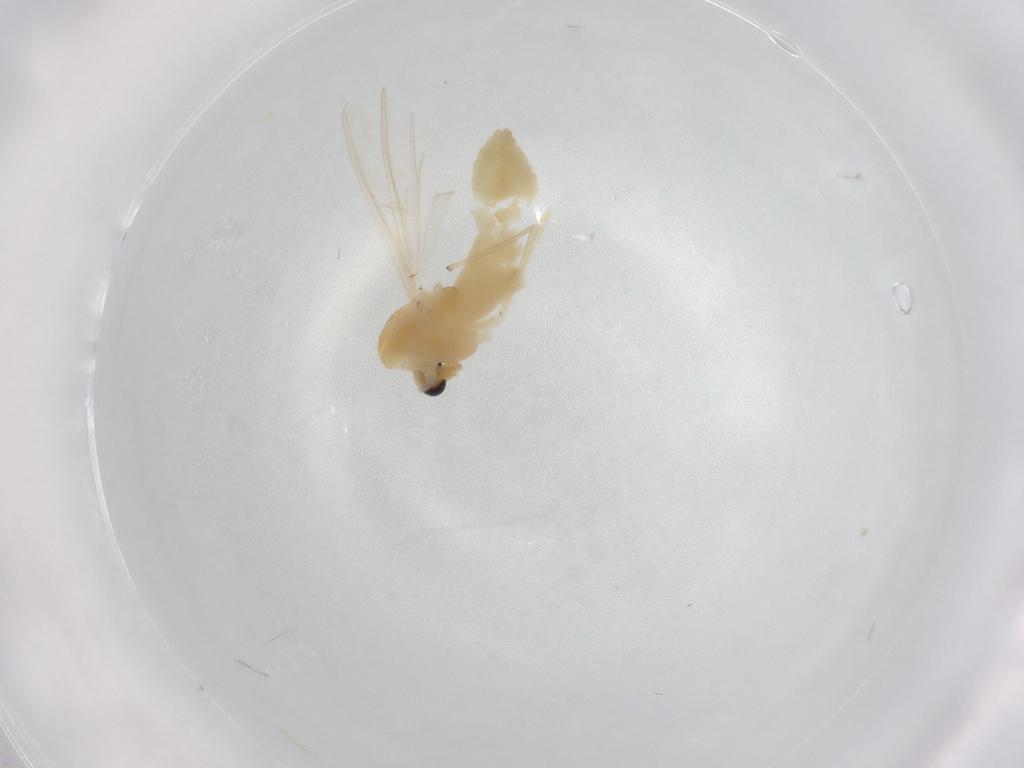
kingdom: Animalia
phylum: Arthropoda
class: Insecta
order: Diptera
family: Chironomidae
